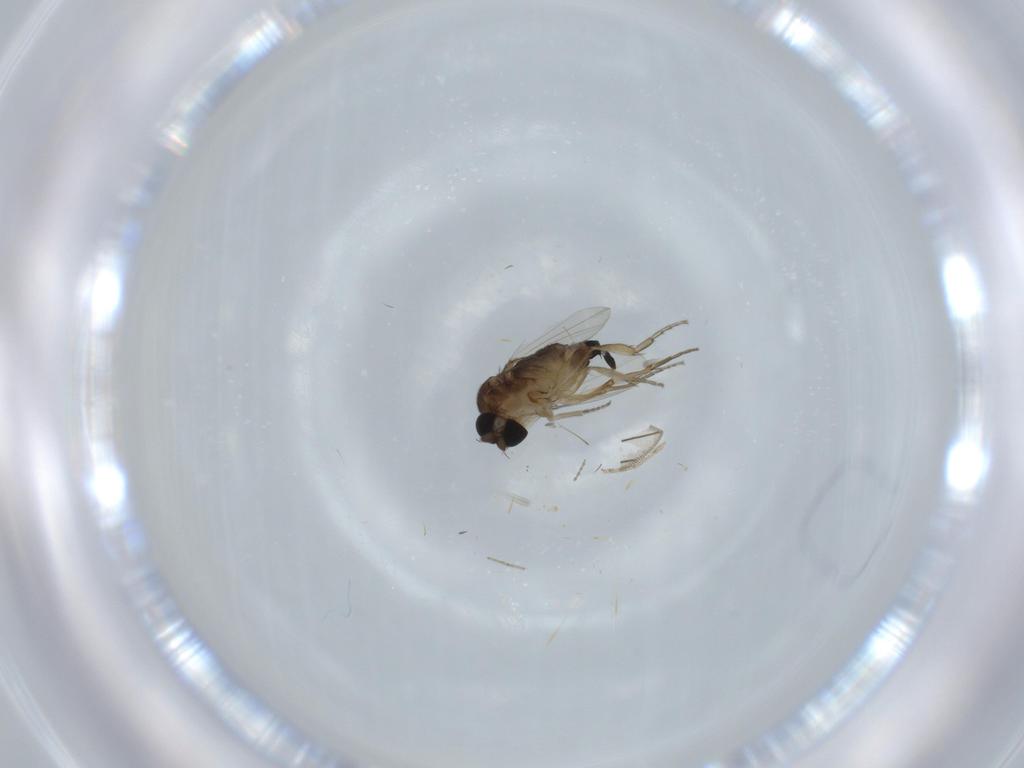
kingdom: Animalia
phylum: Arthropoda
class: Insecta
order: Diptera
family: Phoridae
